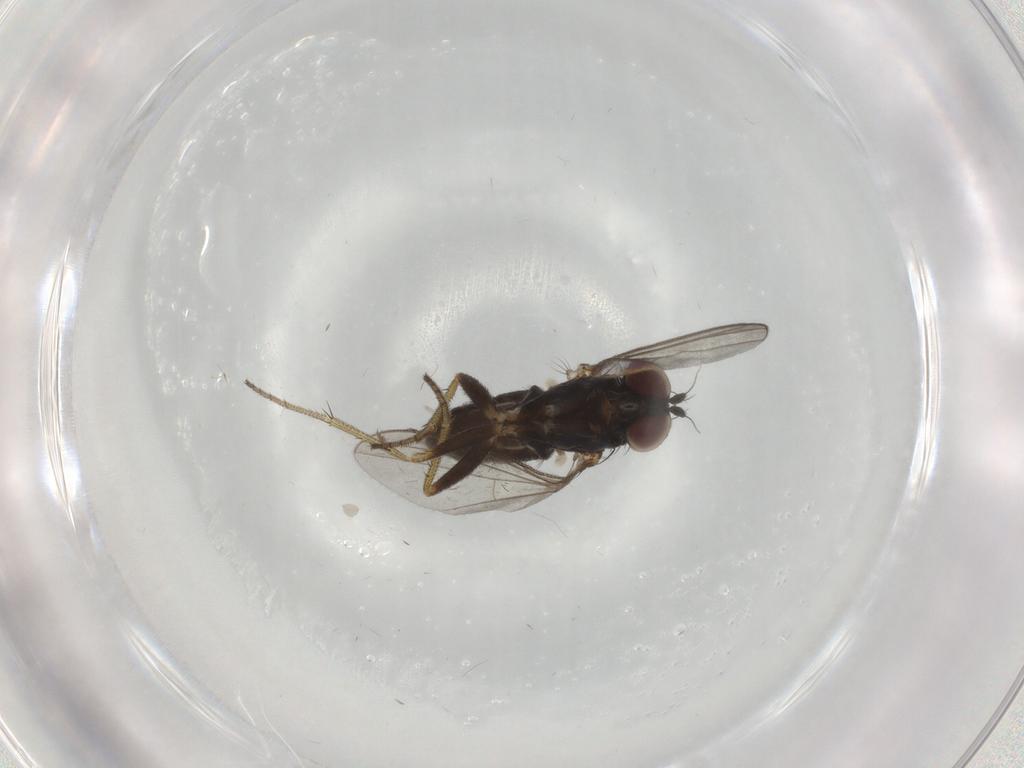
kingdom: Animalia
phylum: Arthropoda
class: Insecta
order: Diptera
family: Dolichopodidae
